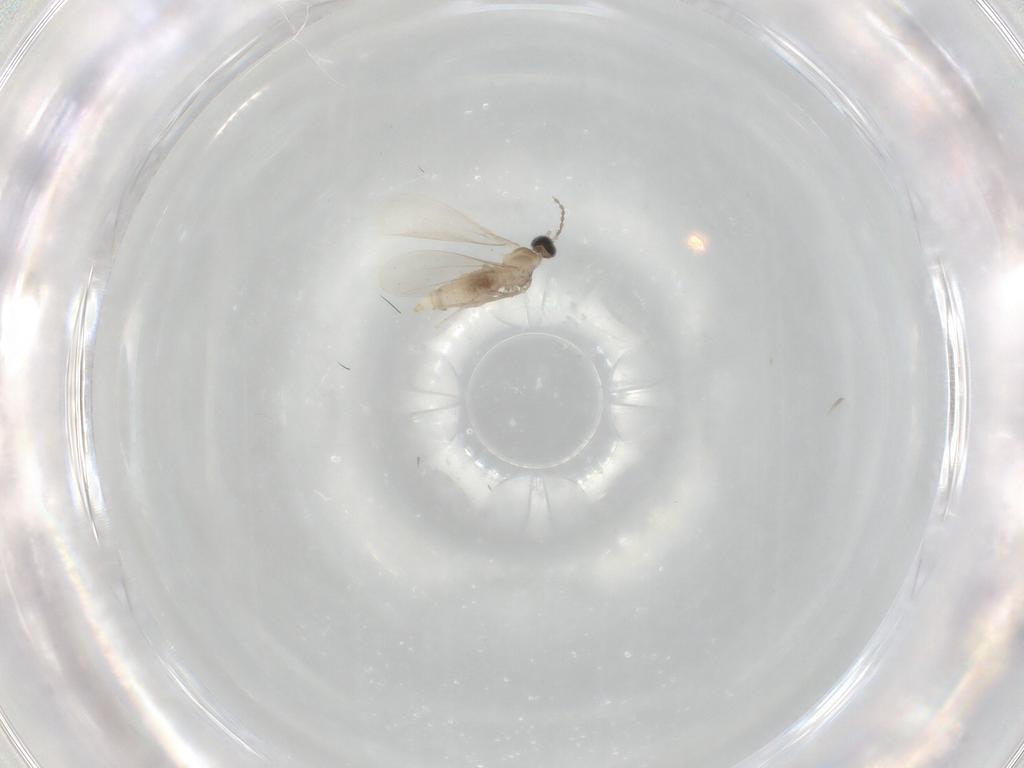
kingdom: Animalia
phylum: Arthropoda
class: Insecta
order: Diptera
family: Cecidomyiidae
